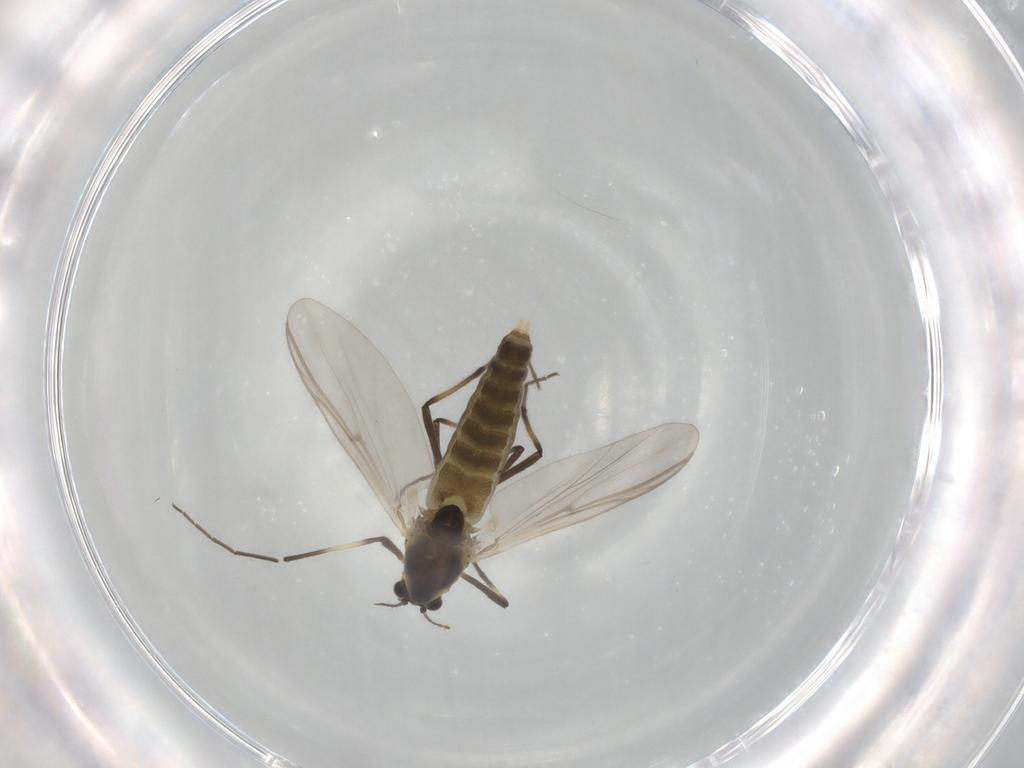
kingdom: Animalia
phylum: Arthropoda
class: Insecta
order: Diptera
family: Chironomidae
